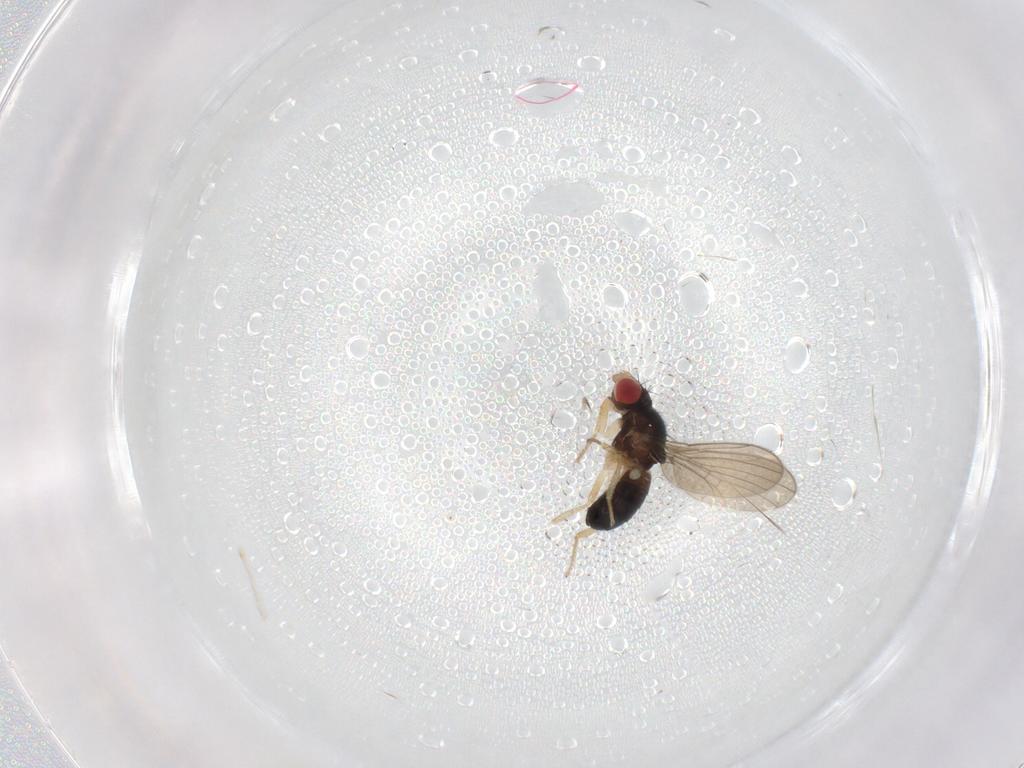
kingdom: Animalia
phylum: Arthropoda
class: Insecta
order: Diptera
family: Drosophilidae
